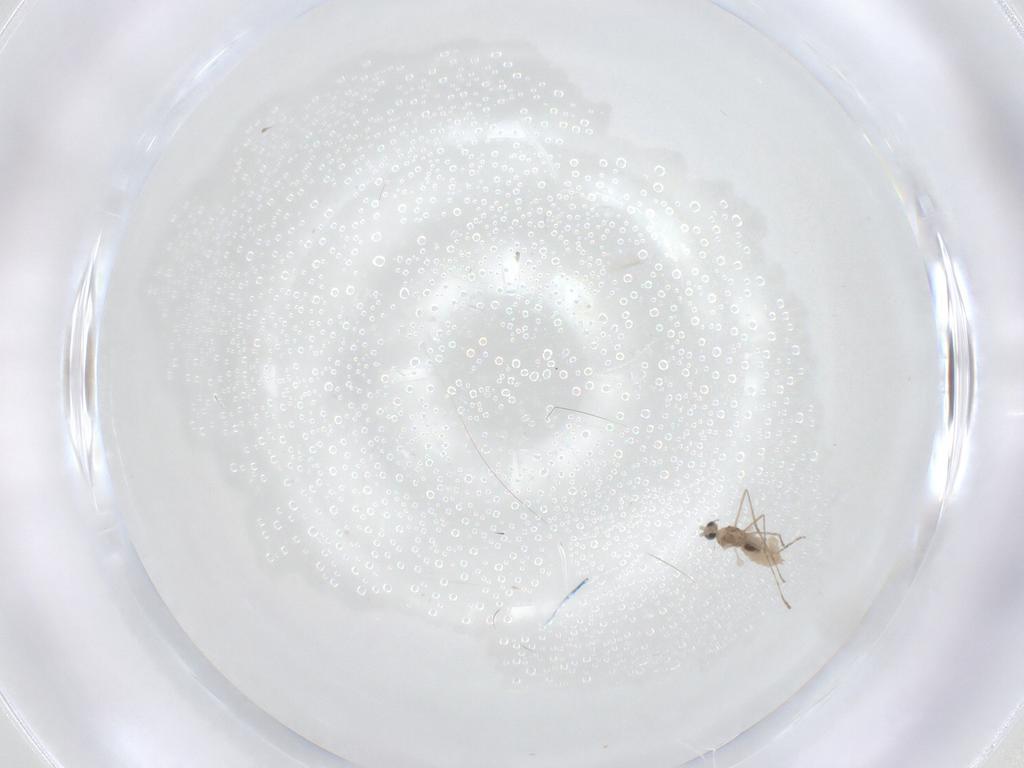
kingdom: Animalia
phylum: Arthropoda
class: Insecta
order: Diptera
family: Cecidomyiidae
